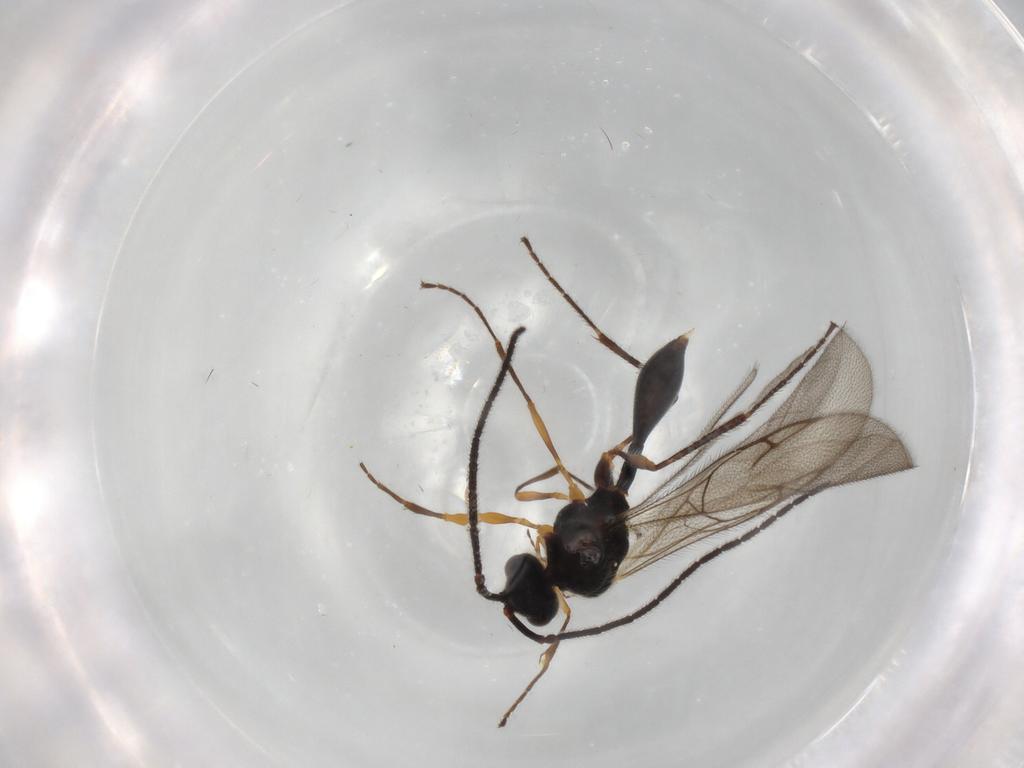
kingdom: Animalia
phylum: Arthropoda
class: Insecta
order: Hymenoptera
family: Diapriidae
